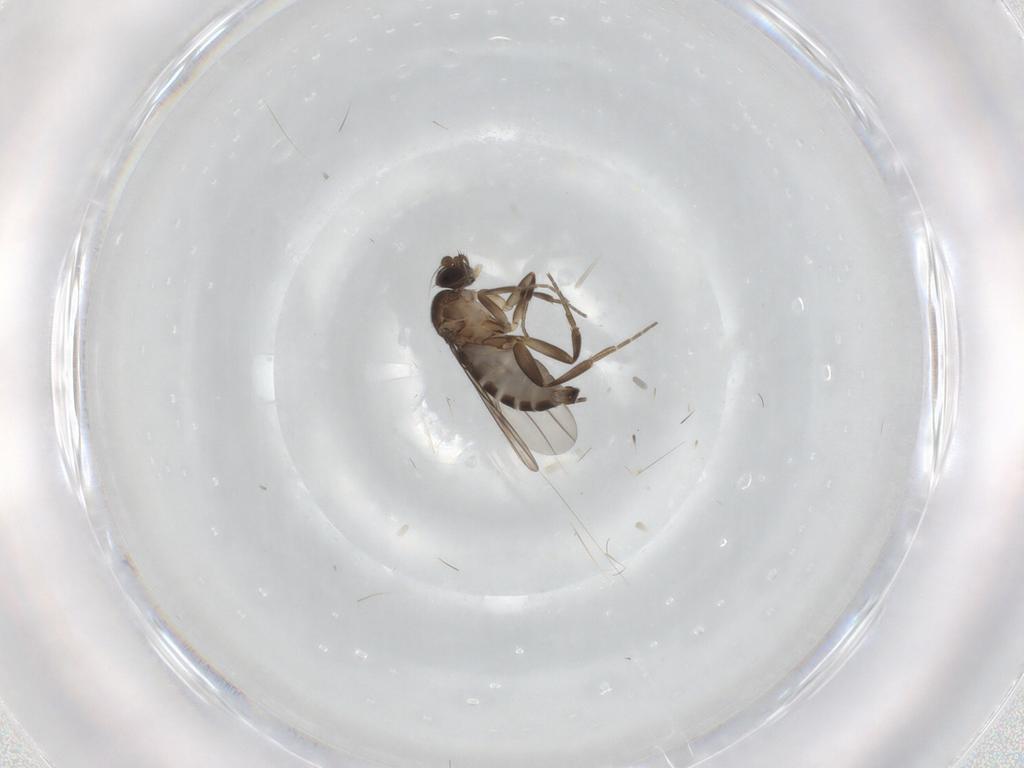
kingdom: Animalia
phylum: Arthropoda
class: Insecta
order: Diptera
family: Phoridae
